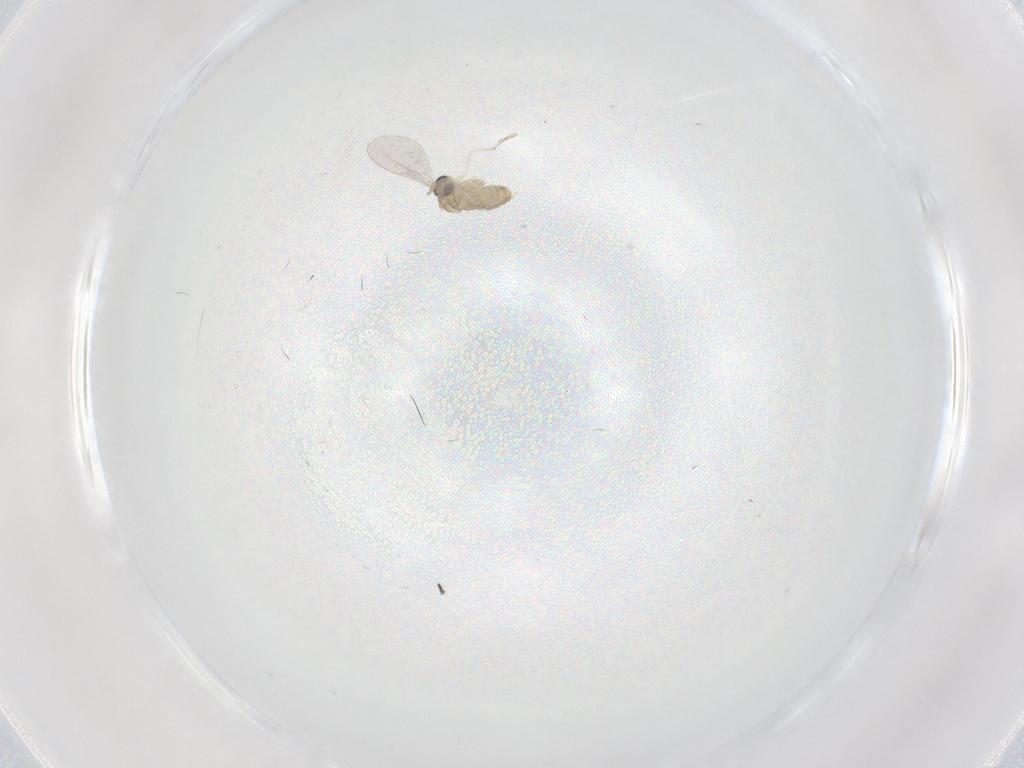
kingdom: Animalia
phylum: Arthropoda
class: Insecta
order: Diptera
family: Cecidomyiidae
